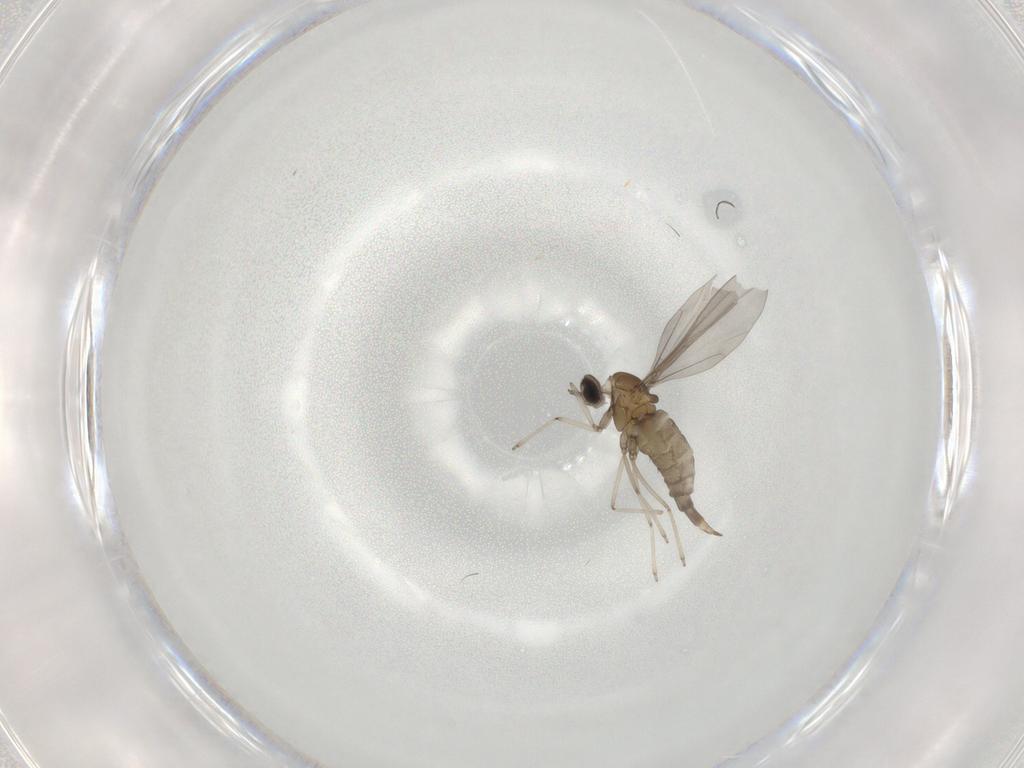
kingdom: Animalia
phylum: Arthropoda
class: Insecta
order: Diptera
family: Cecidomyiidae
